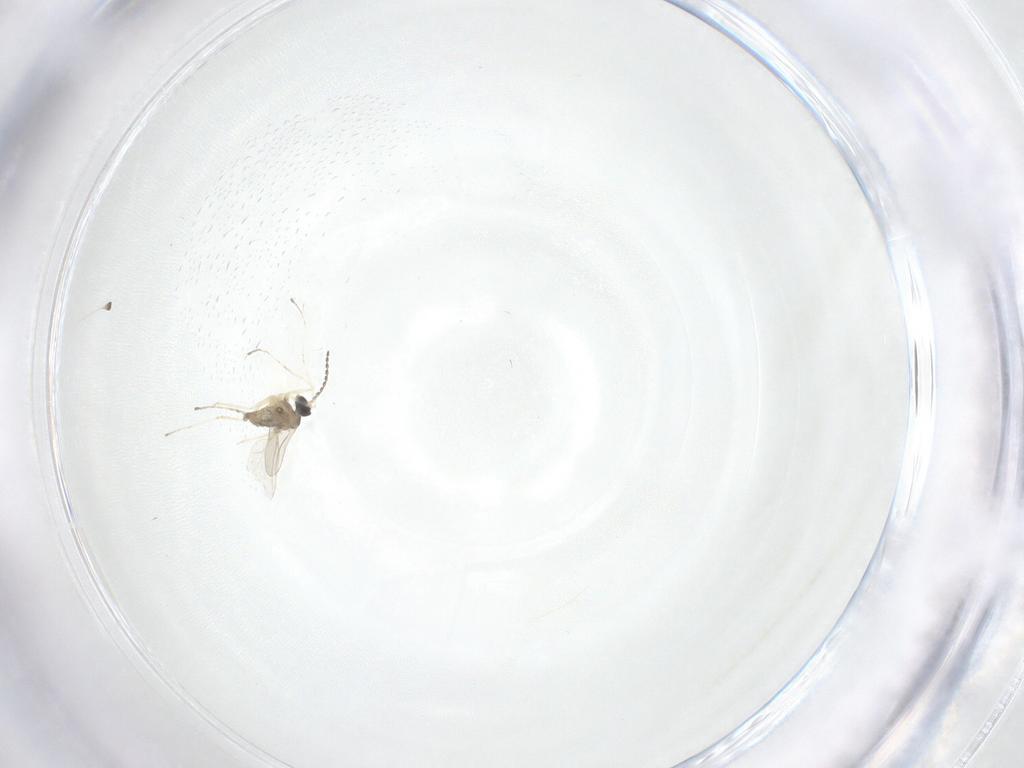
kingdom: Animalia
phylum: Arthropoda
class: Insecta
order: Diptera
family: Cecidomyiidae
